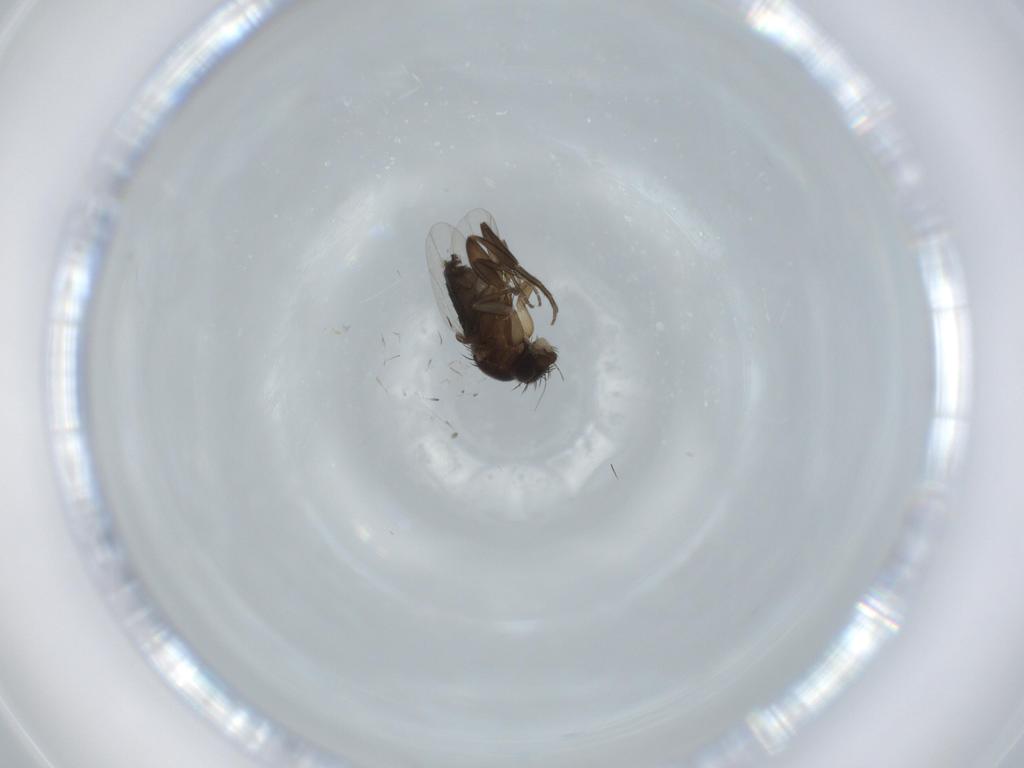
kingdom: Animalia
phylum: Arthropoda
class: Insecta
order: Diptera
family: Phoridae
